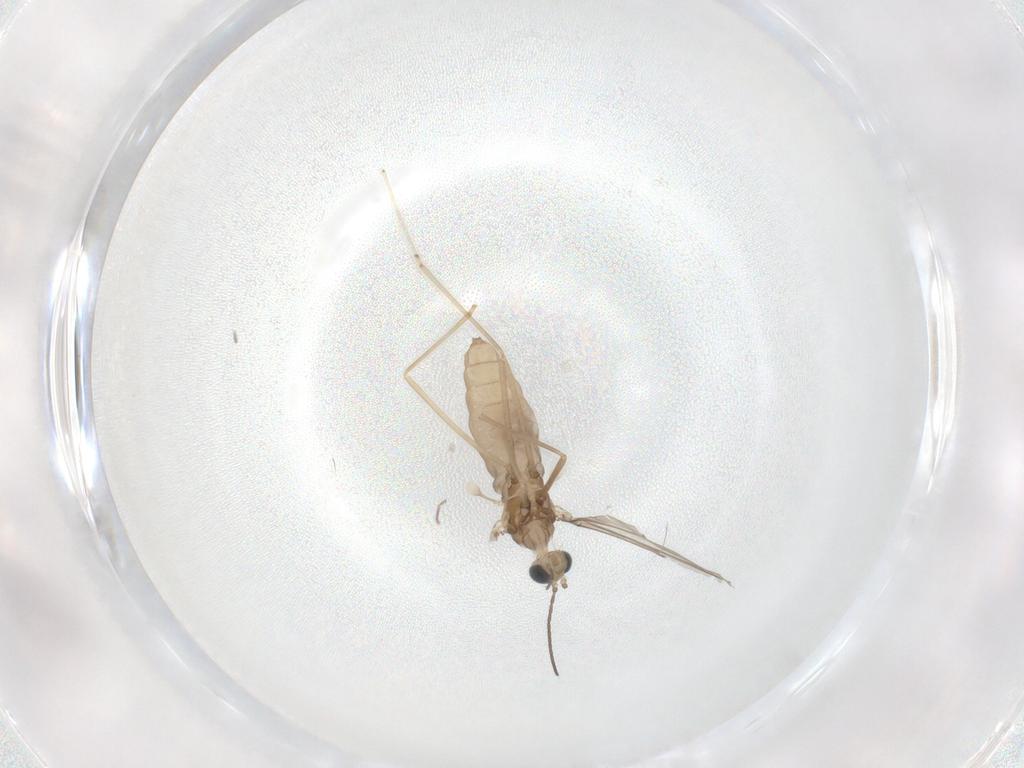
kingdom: Animalia
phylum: Arthropoda
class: Insecta
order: Diptera
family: Cecidomyiidae
